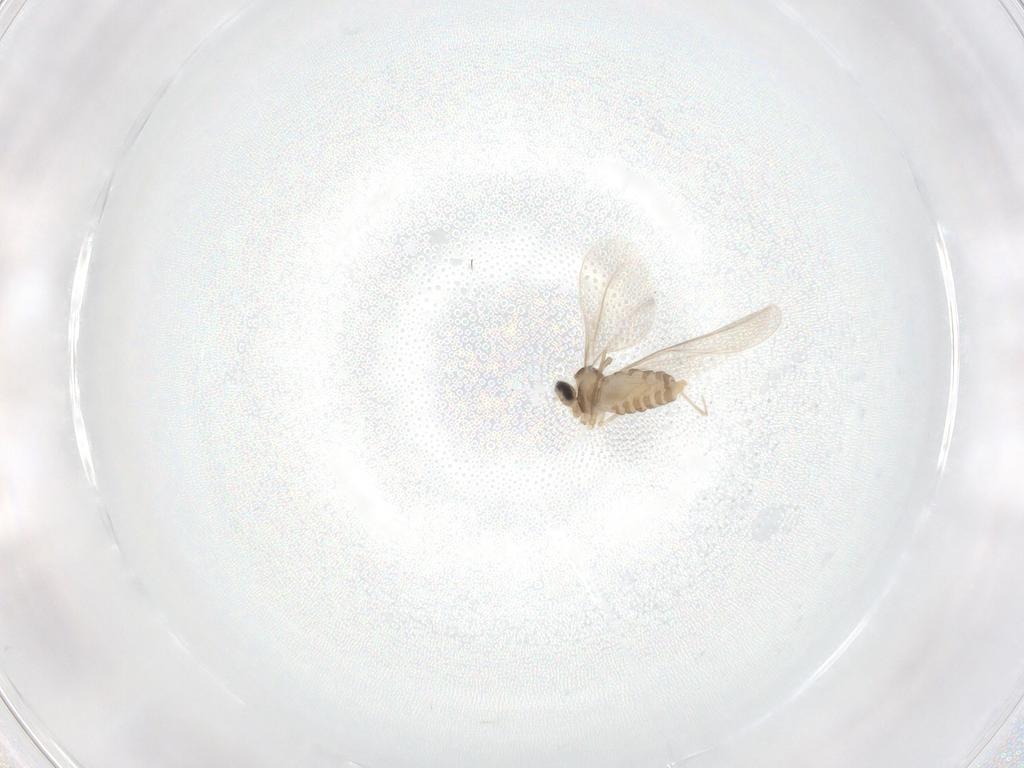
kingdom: Animalia
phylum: Arthropoda
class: Insecta
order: Diptera
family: Cecidomyiidae
